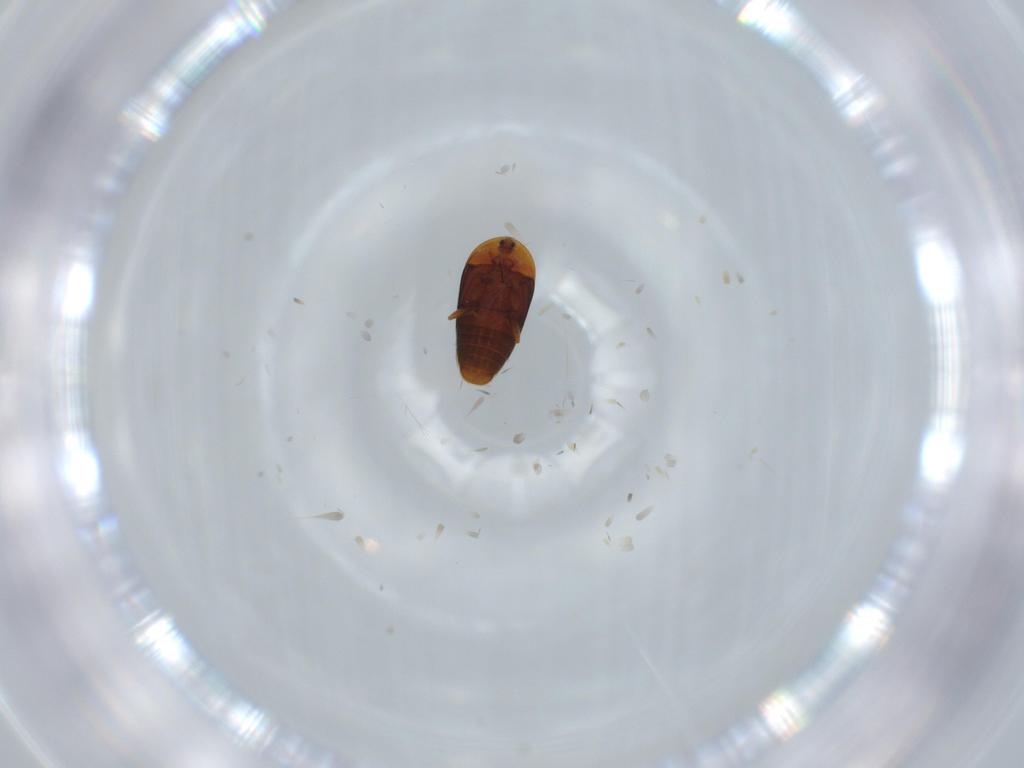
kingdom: Animalia
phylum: Arthropoda
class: Insecta
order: Coleoptera
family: Corylophidae
